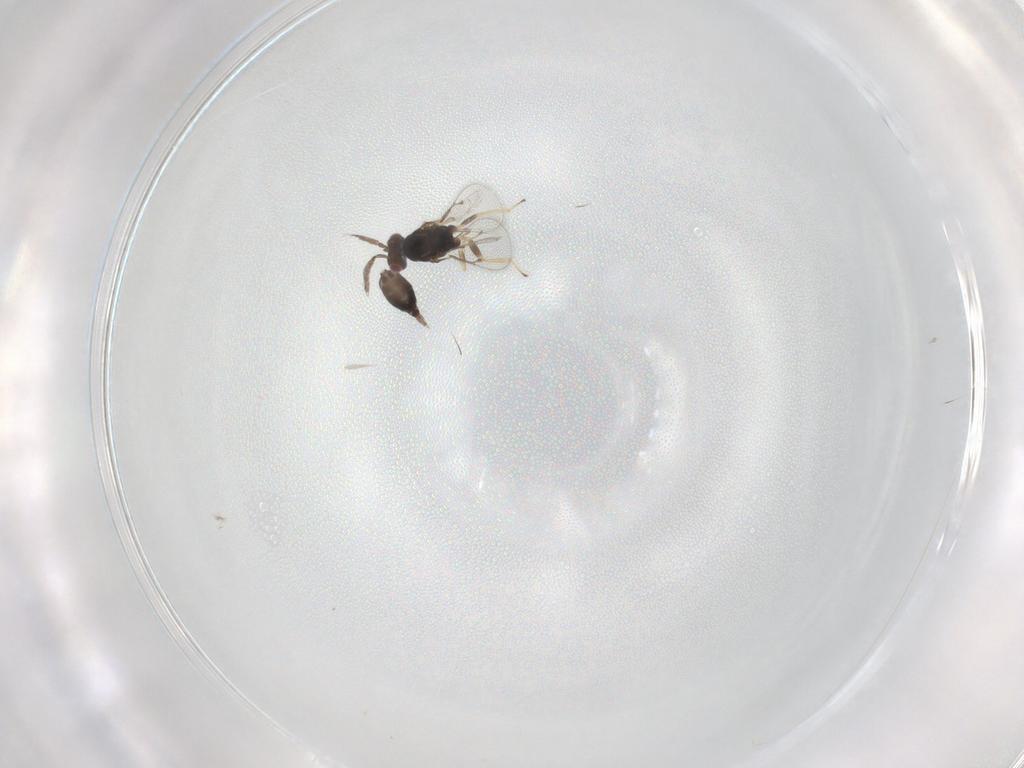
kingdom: Animalia
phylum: Arthropoda
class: Insecta
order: Hymenoptera
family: Eulophidae
